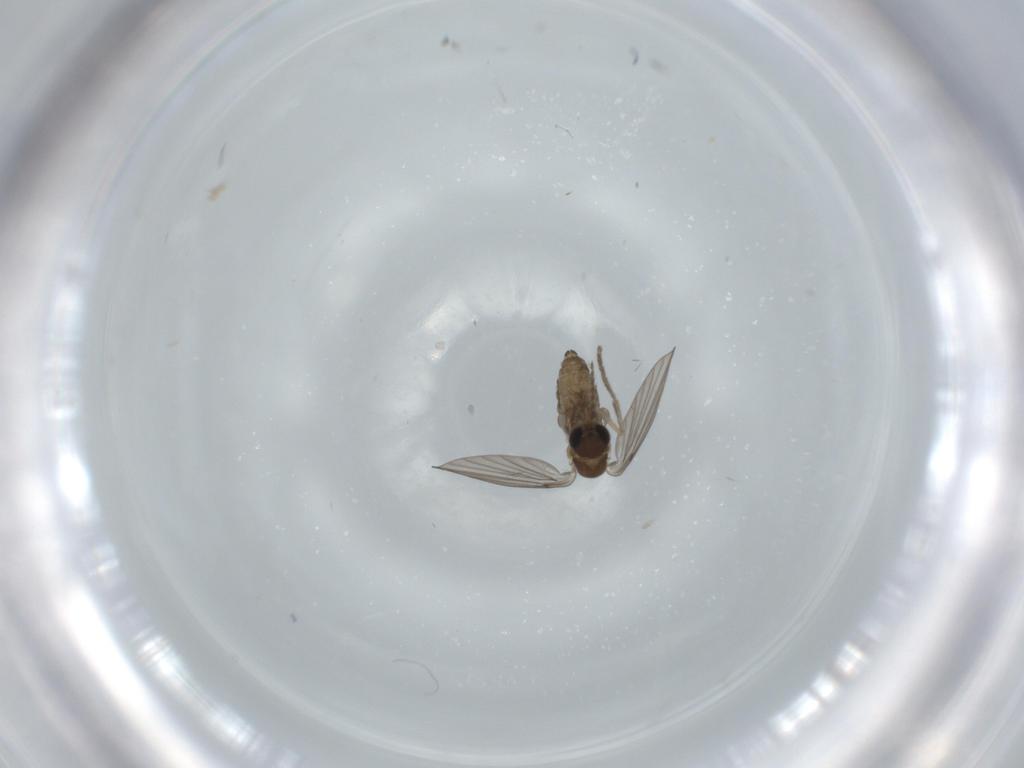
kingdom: Animalia
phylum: Arthropoda
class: Insecta
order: Diptera
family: Psychodidae
